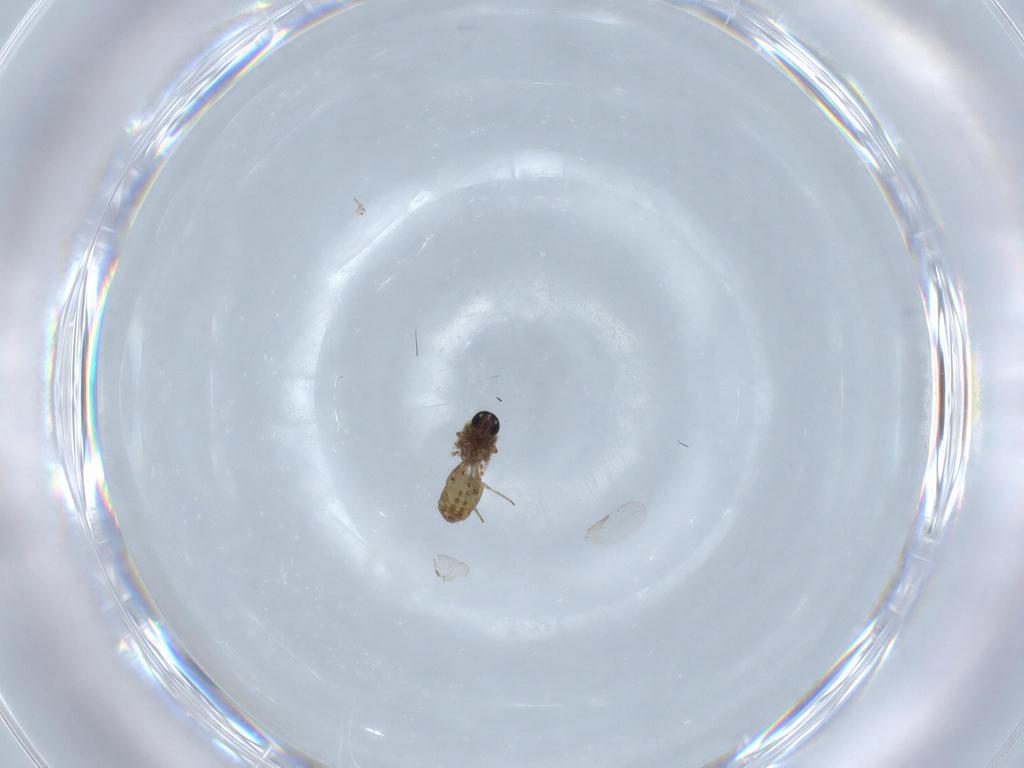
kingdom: Animalia
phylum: Arthropoda
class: Insecta
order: Diptera
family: Ceratopogonidae
